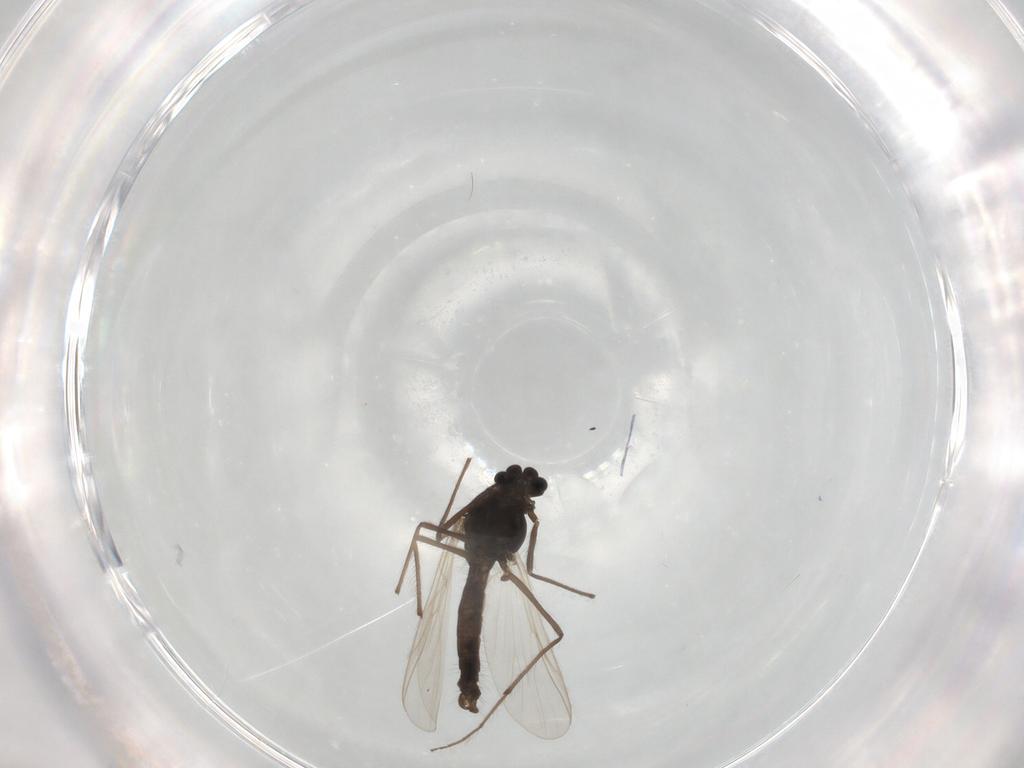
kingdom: Animalia
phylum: Arthropoda
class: Insecta
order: Diptera
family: Chironomidae
